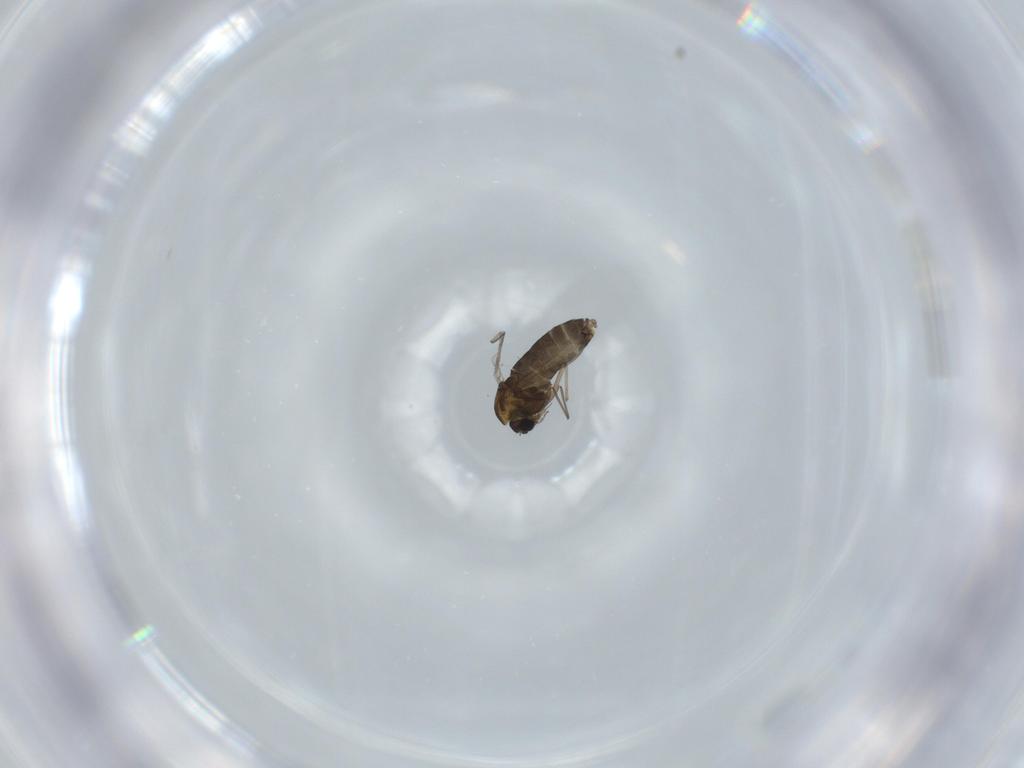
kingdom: Animalia
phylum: Arthropoda
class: Insecta
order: Diptera
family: Chironomidae
